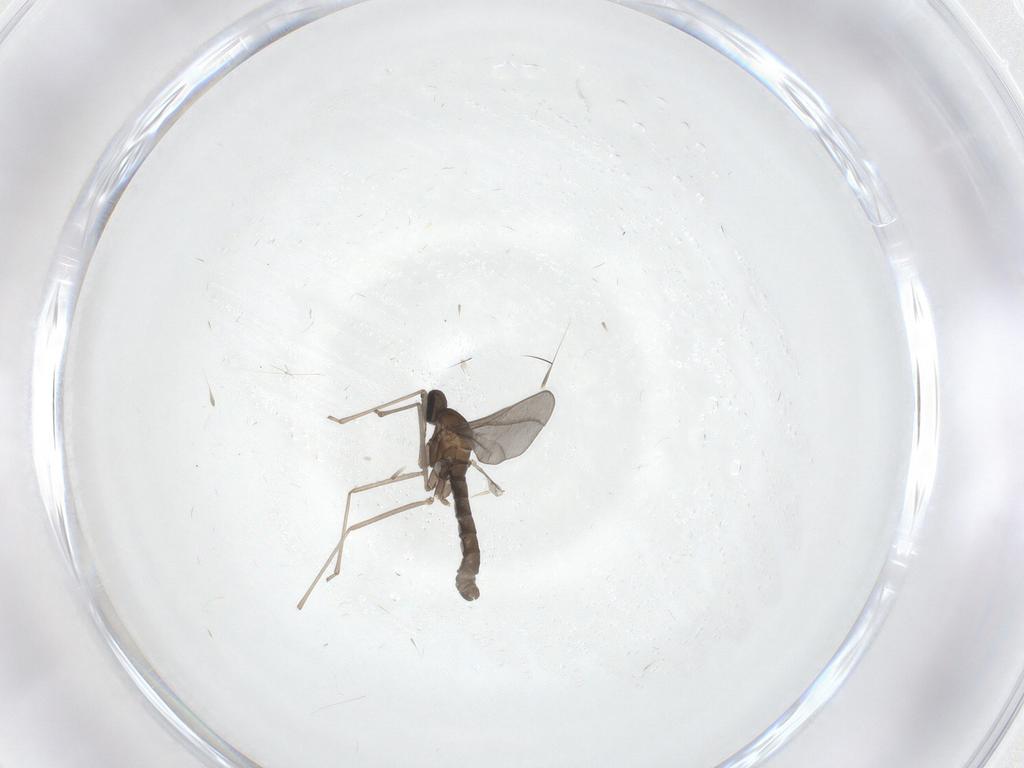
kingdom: Animalia
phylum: Arthropoda
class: Insecta
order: Diptera
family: Cecidomyiidae
